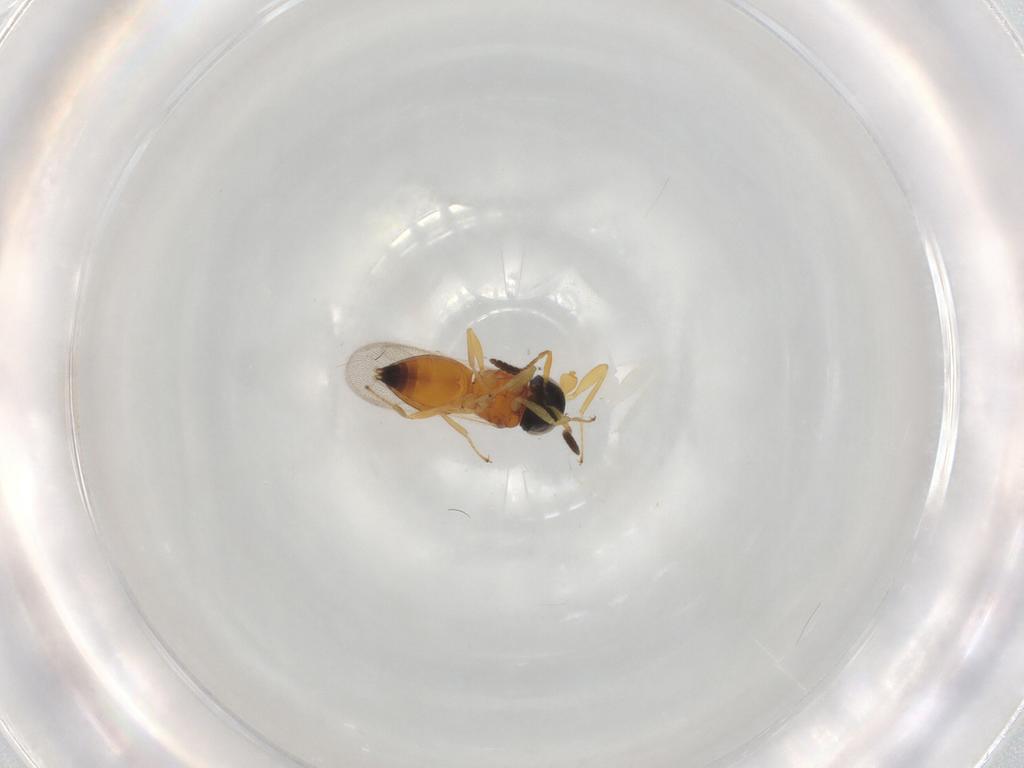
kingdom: Animalia
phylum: Arthropoda
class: Insecta
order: Hymenoptera
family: Scelionidae
